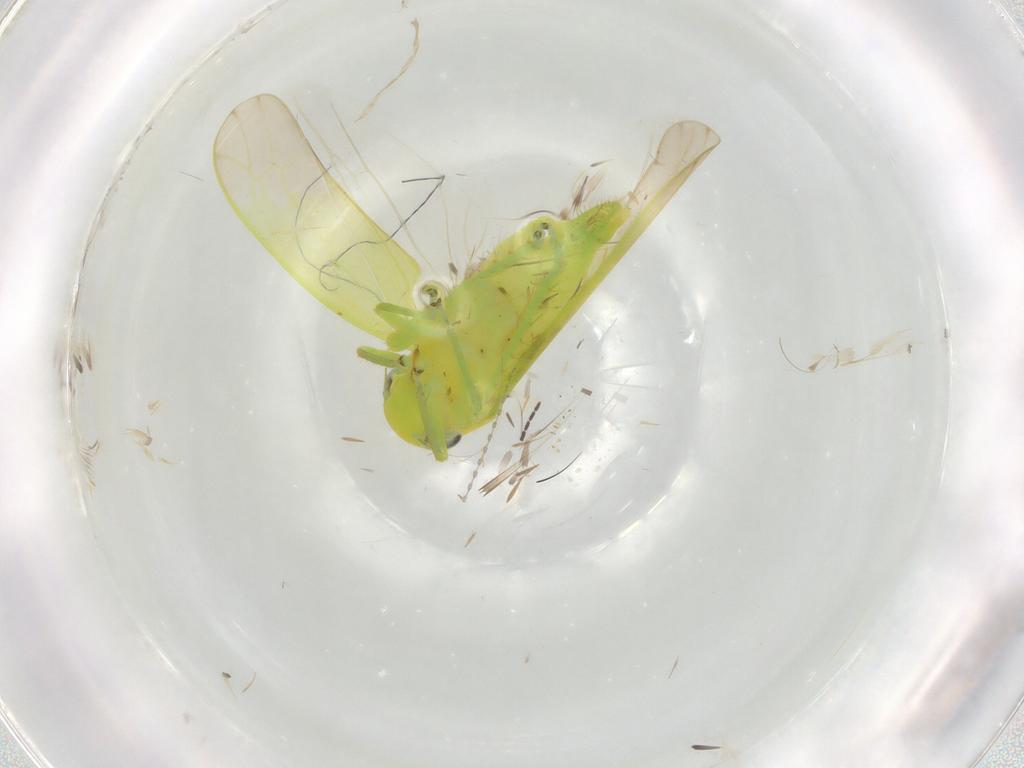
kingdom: Animalia
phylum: Arthropoda
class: Insecta
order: Hemiptera
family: Cicadellidae
